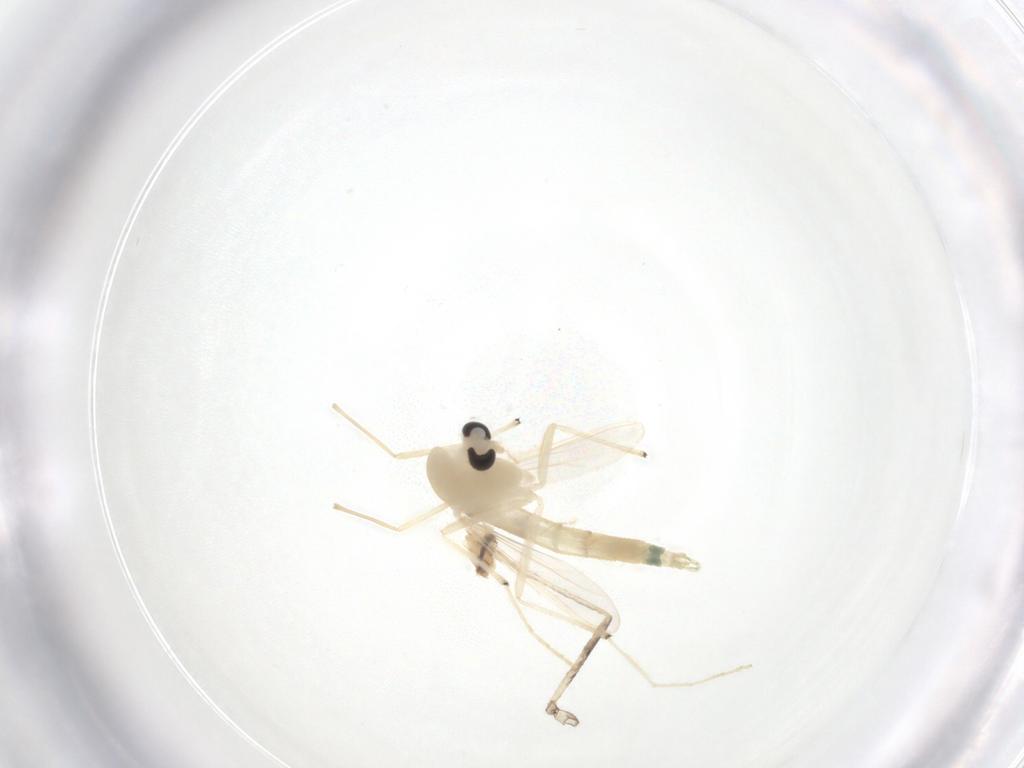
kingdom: Animalia
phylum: Arthropoda
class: Insecta
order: Diptera
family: Chironomidae
